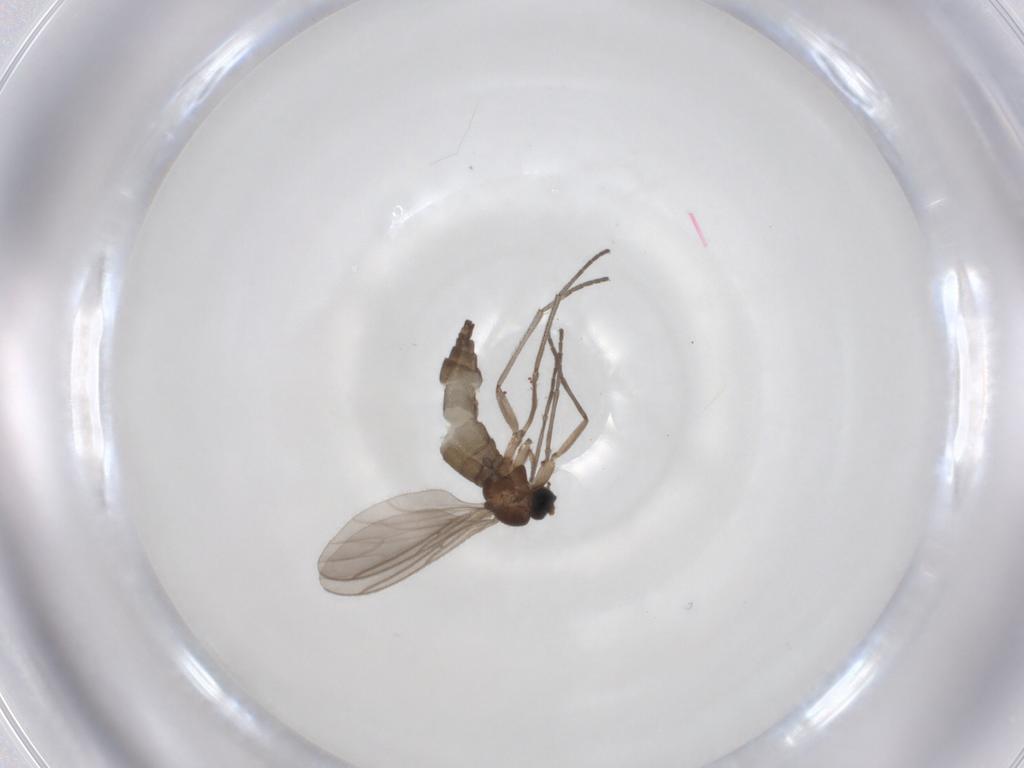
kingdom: Animalia
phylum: Arthropoda
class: Insecta
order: Diptera
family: Sciaridae
